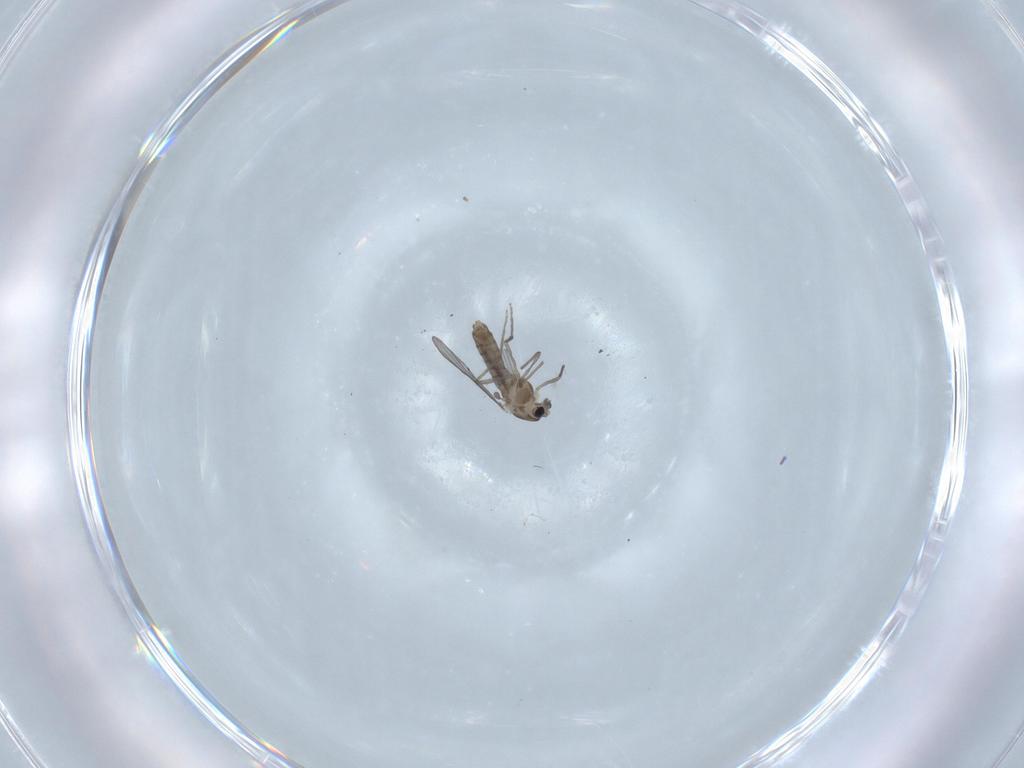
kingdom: Animalia
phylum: Arthropoda
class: Insecta
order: Diptera
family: Chironomidae
